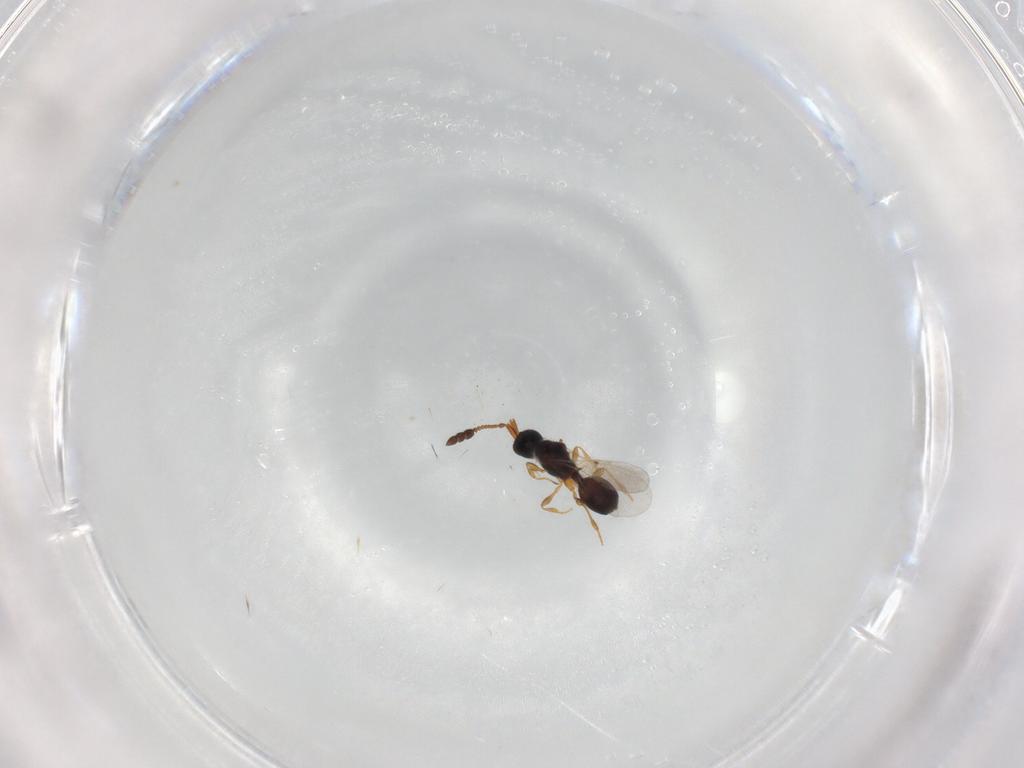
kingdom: Animalia
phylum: Arthropoda
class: Insecta
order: Hymenoptera
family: Diapriidae
